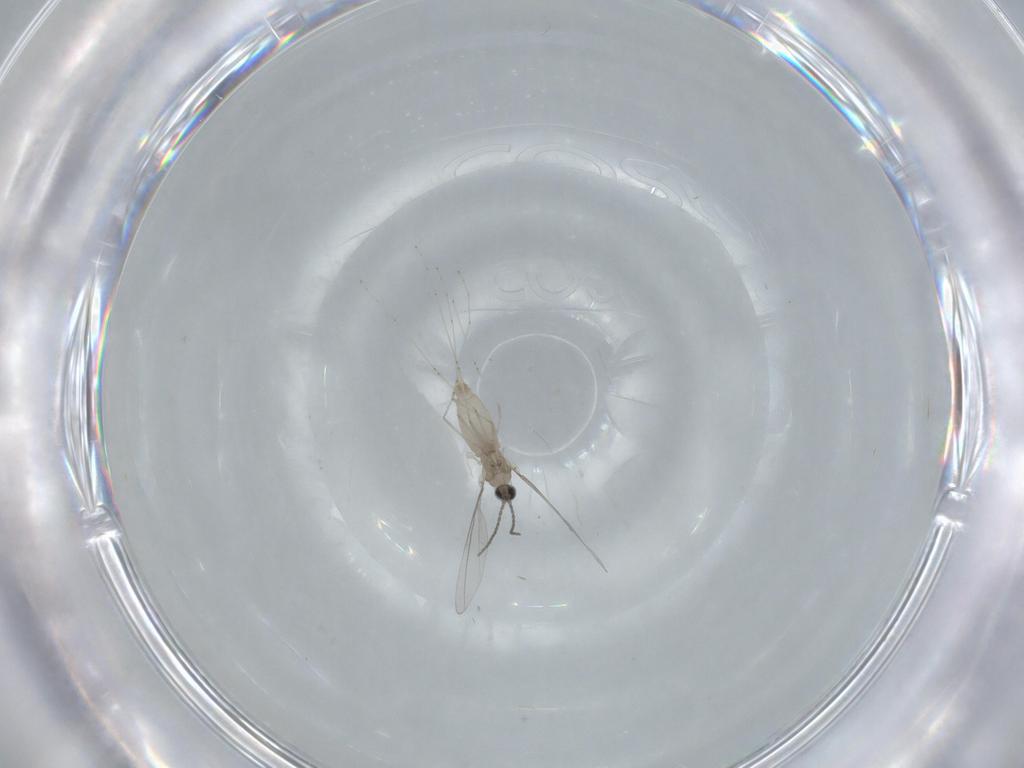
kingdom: Animalia
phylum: Arthropoda
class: Insecta
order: Diptera
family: Cecidomyiidae
